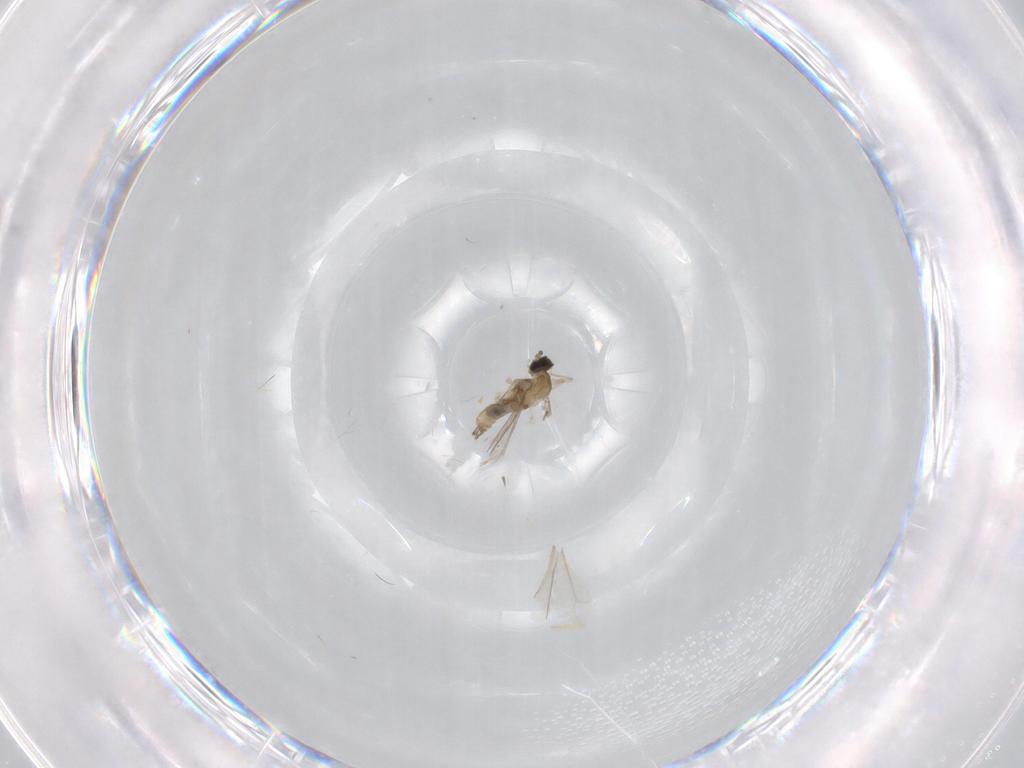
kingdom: Animalia
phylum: Arthropoda
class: Insecta
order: Diptera
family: Cecidomyiidae
